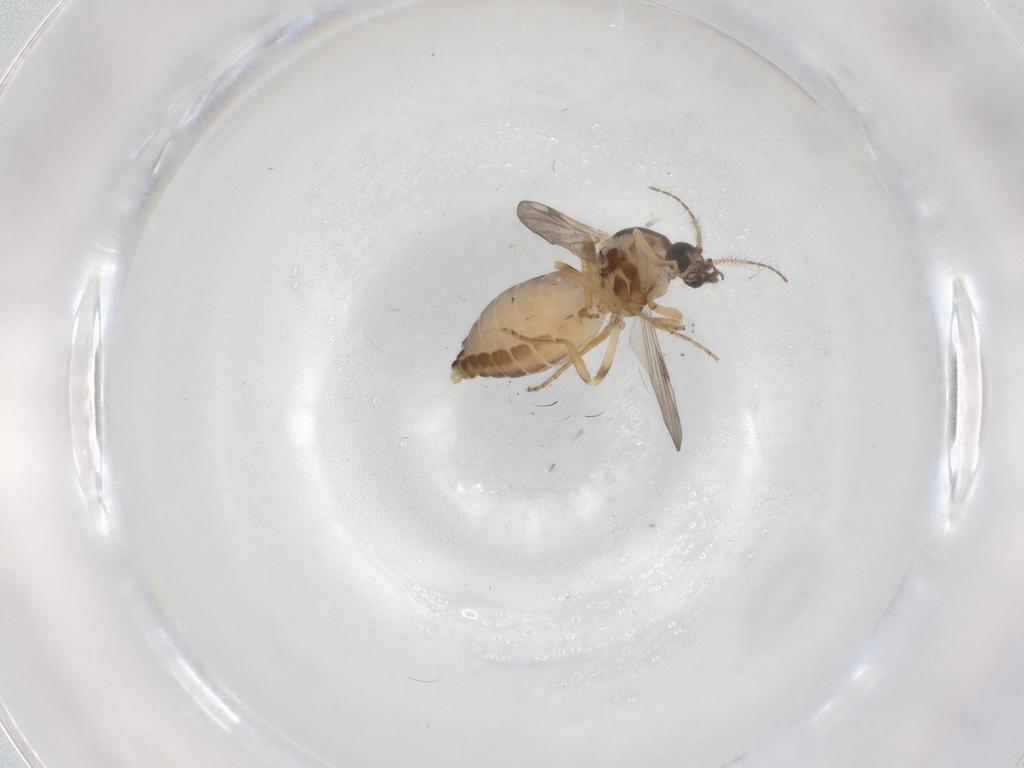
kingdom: Animalia
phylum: Arthropoda
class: Insecta
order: Diptera
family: Ceratopogonidae
